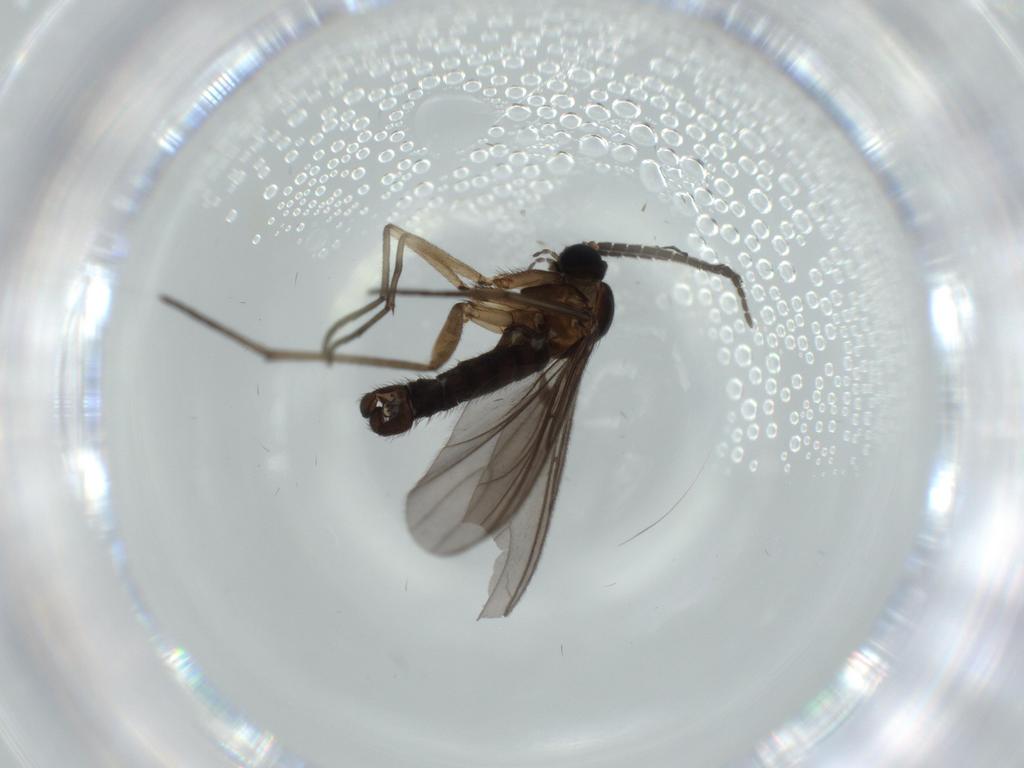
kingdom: Animalia
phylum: Arthropoda
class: Insecta
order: Diptera
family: Sciaridae
